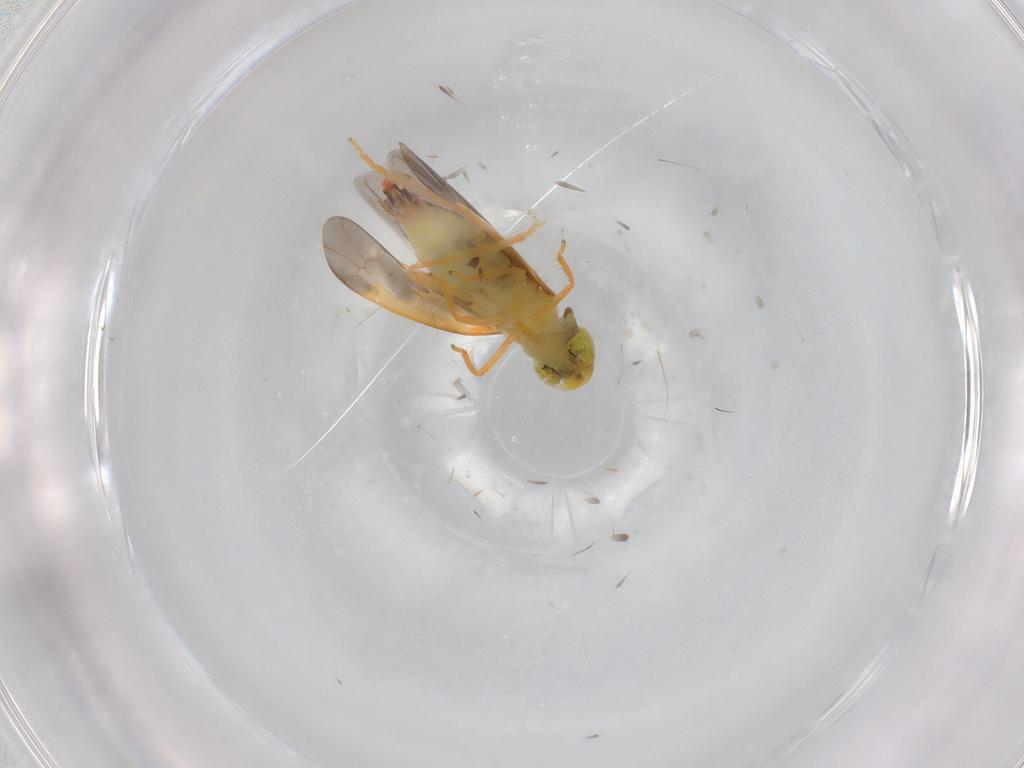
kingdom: Animalia
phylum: Arthropoda
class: Insecta
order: Hemiptera
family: Cicadellidae
